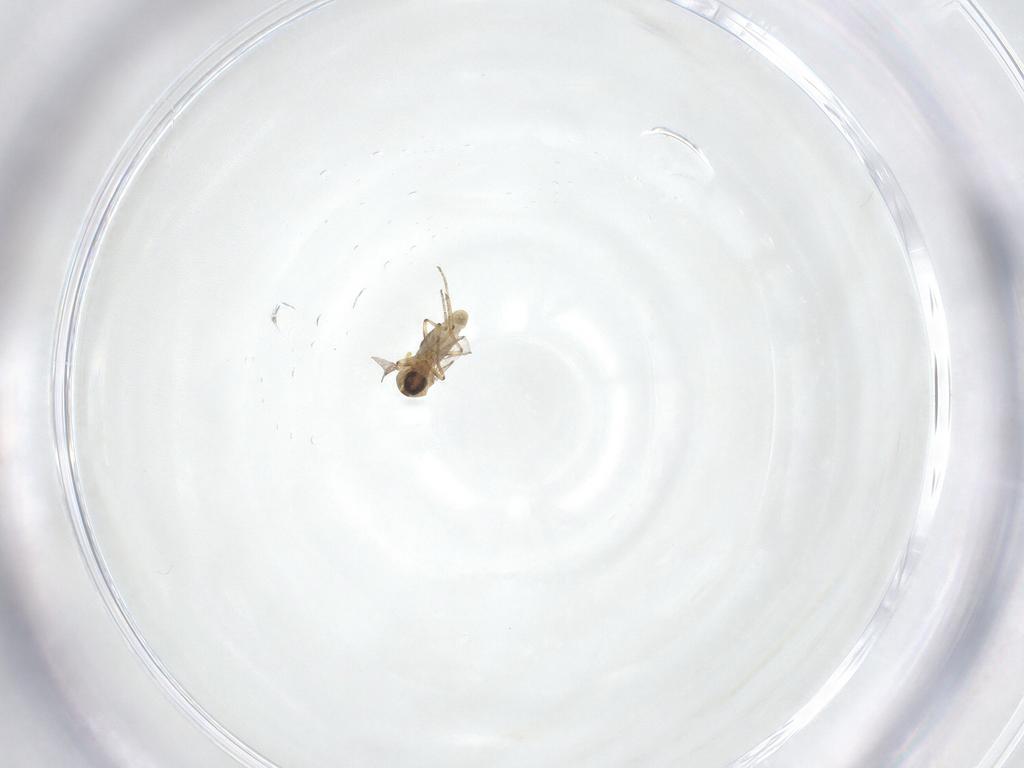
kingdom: Animalia
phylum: Arthropoda
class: Insecta
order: Diptera
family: Ceratopogonidae
